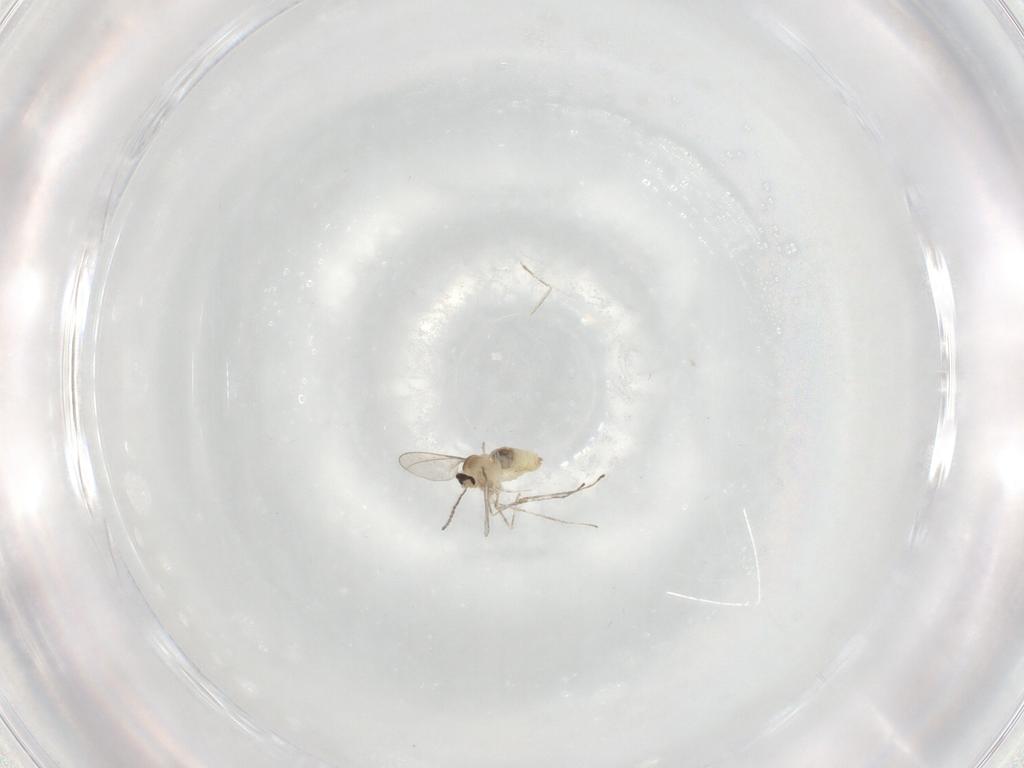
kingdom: Animalia
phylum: Arthropoda
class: Insecta
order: Diptera
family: Cecidomyiidae
